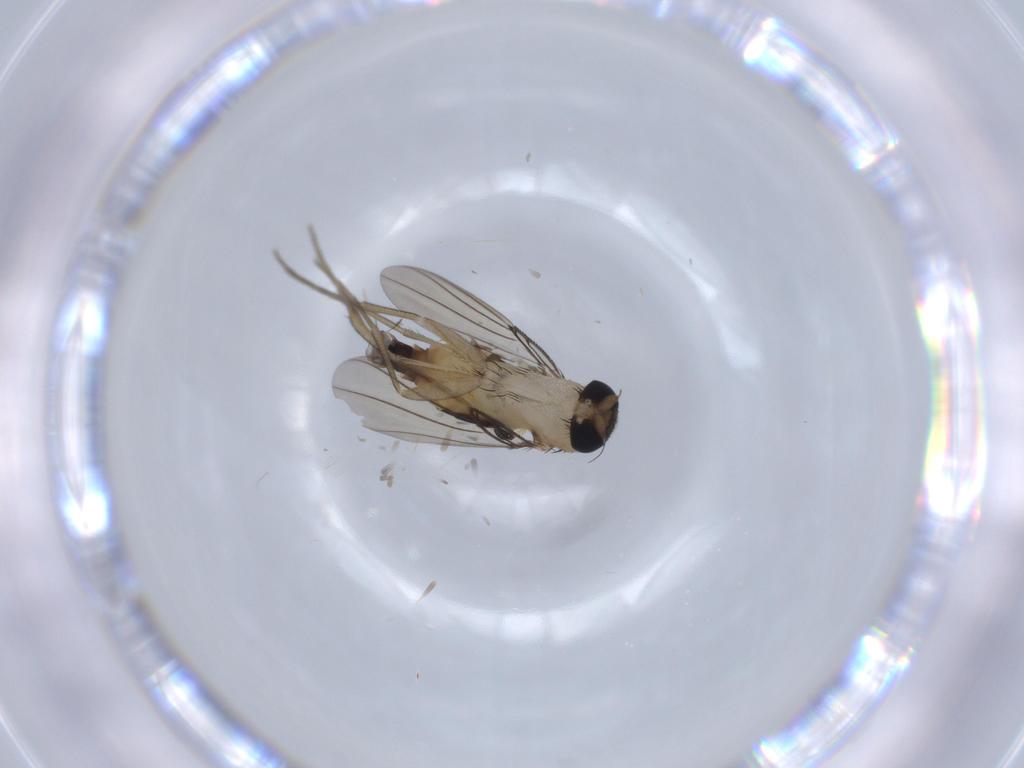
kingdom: Animalia
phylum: Arthropoda
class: Insecta
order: Diptera
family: Phoridae
